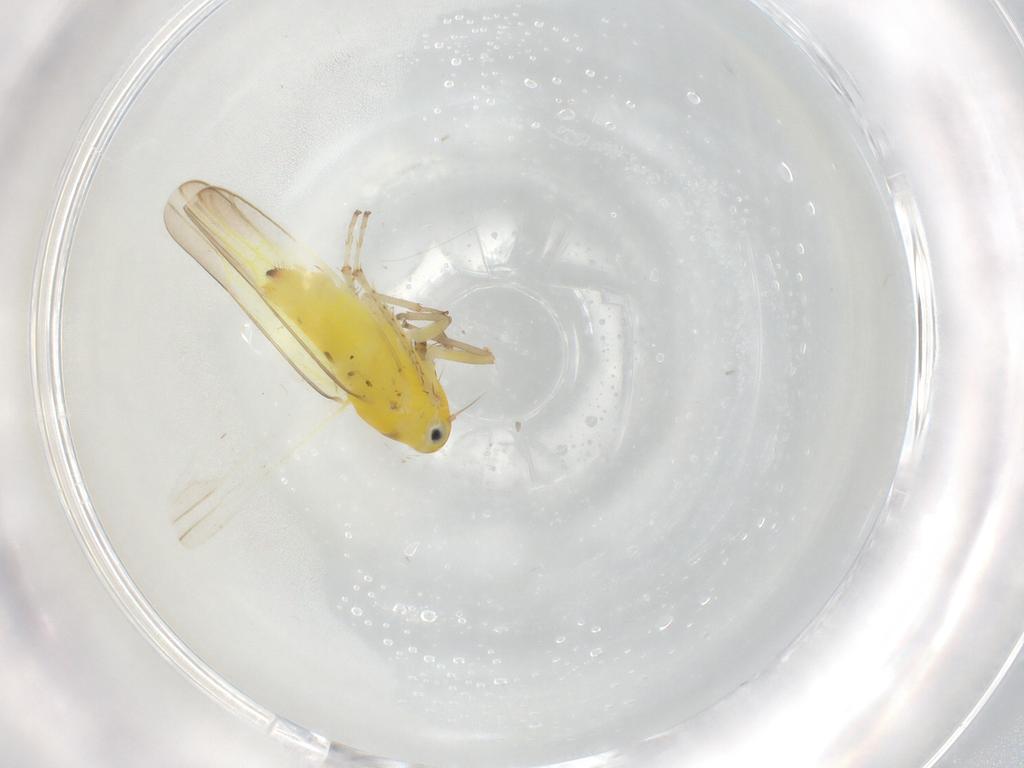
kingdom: Animalia
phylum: Arthropoda
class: Insecta
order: Hemiptera
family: Cicadellidae
